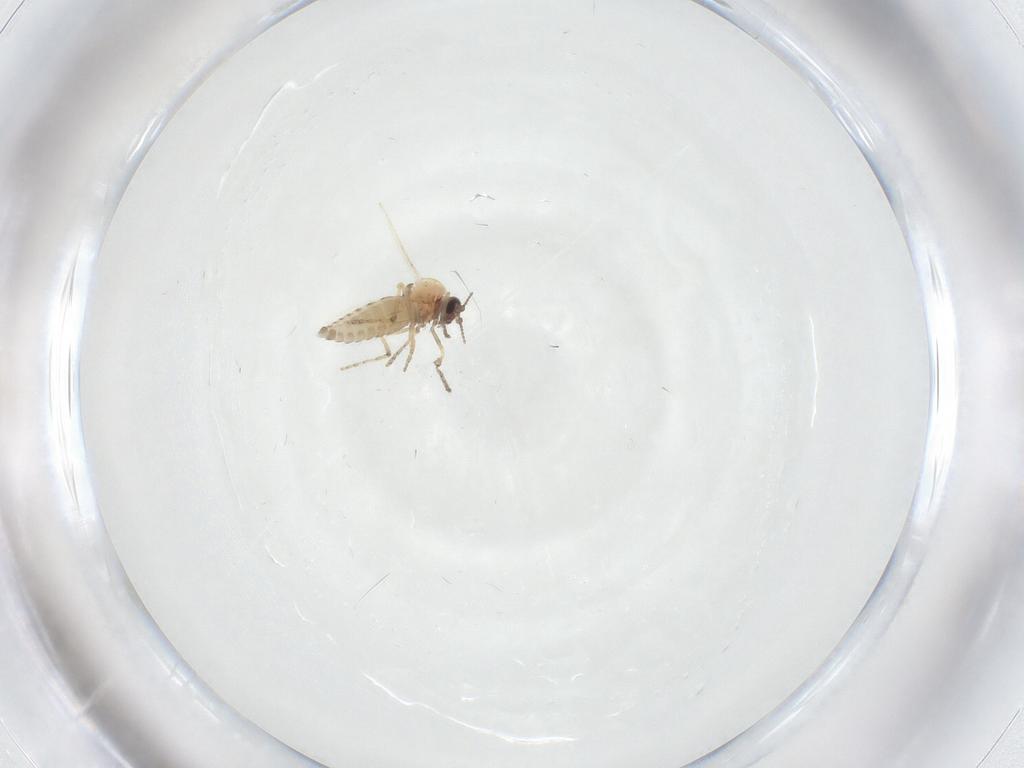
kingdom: Animalia
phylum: Arthropoda
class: Insecta
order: Diptera
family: Ceratopogonidae
